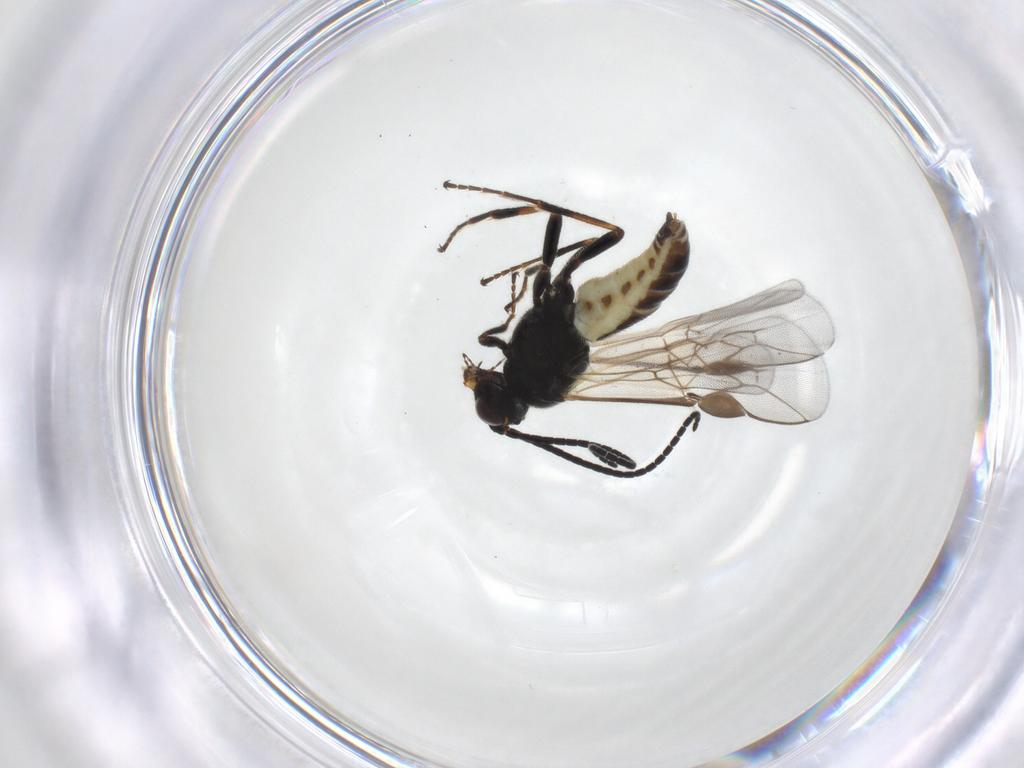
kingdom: Animalia
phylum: Arthropoda
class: Insecta
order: Hymenoptera
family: Braconidae
